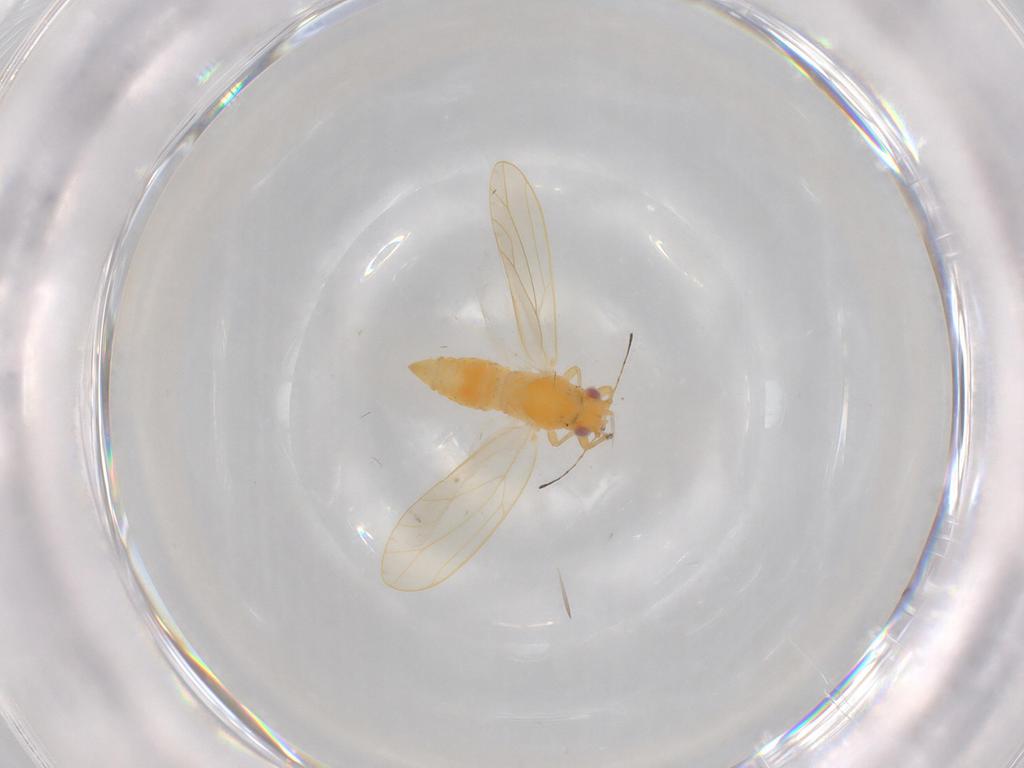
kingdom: Animalia
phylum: Arthropoda
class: Insecta
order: Hemiptera
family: Triozidae
